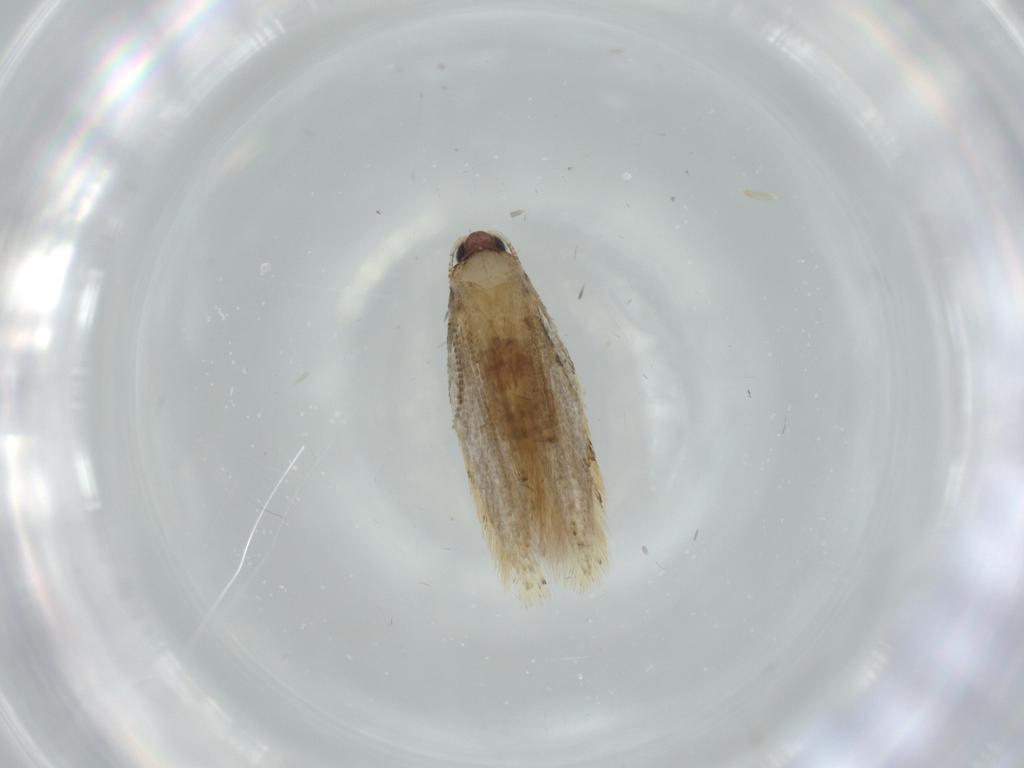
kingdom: Animalia
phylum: Arthropoda
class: Insecta
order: Lepidoptera
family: Tineidae
